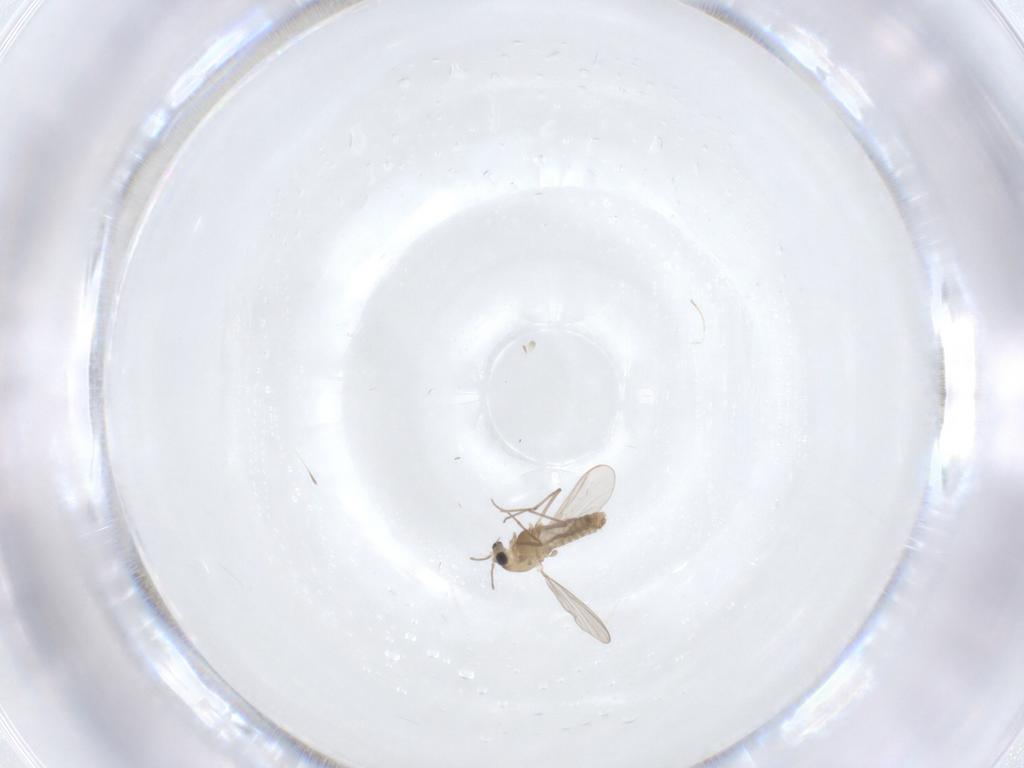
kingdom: Animalia
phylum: Arthropoda
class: Insecta
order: Diptera
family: Chironomidae
